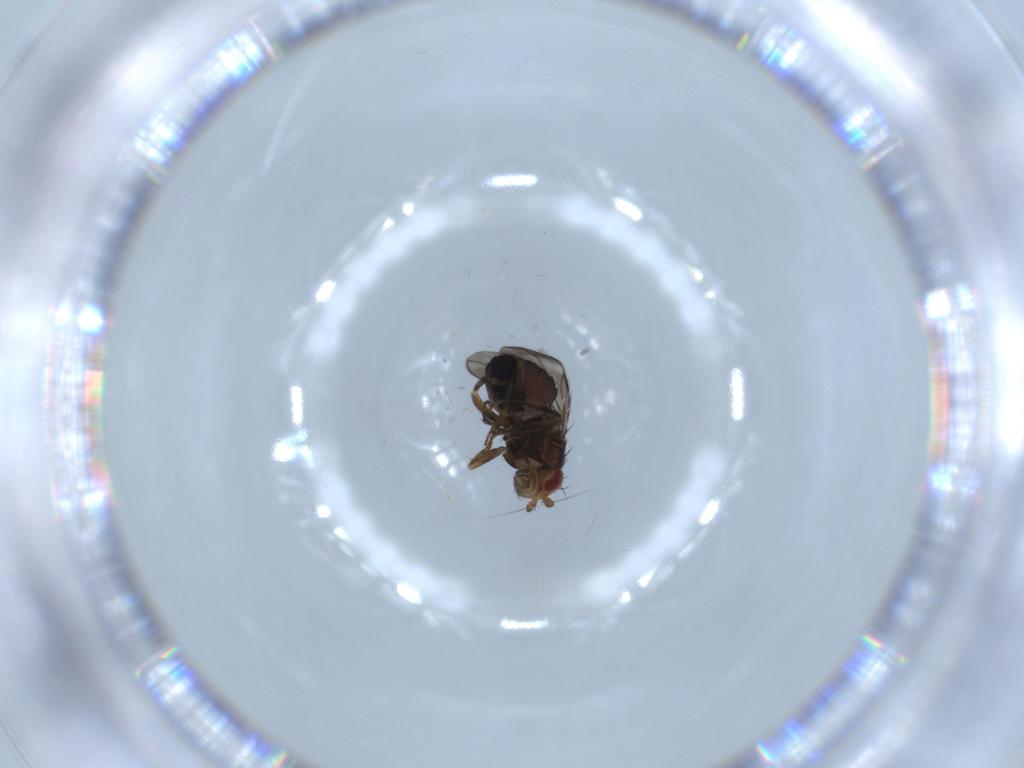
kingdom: Animalia
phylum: Arthropoda
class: Insecta
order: Diptera
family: Sphaeroceridae
